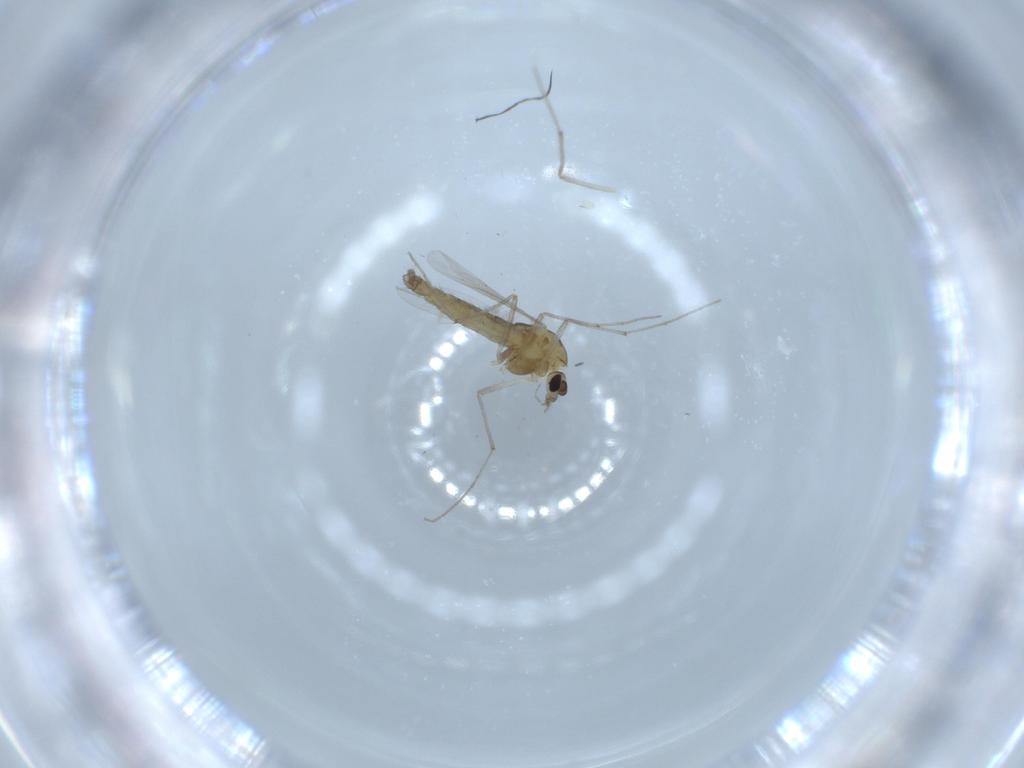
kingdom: Animalia
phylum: Arthropoda
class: Insecta
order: Diptera
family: Chironomidae
